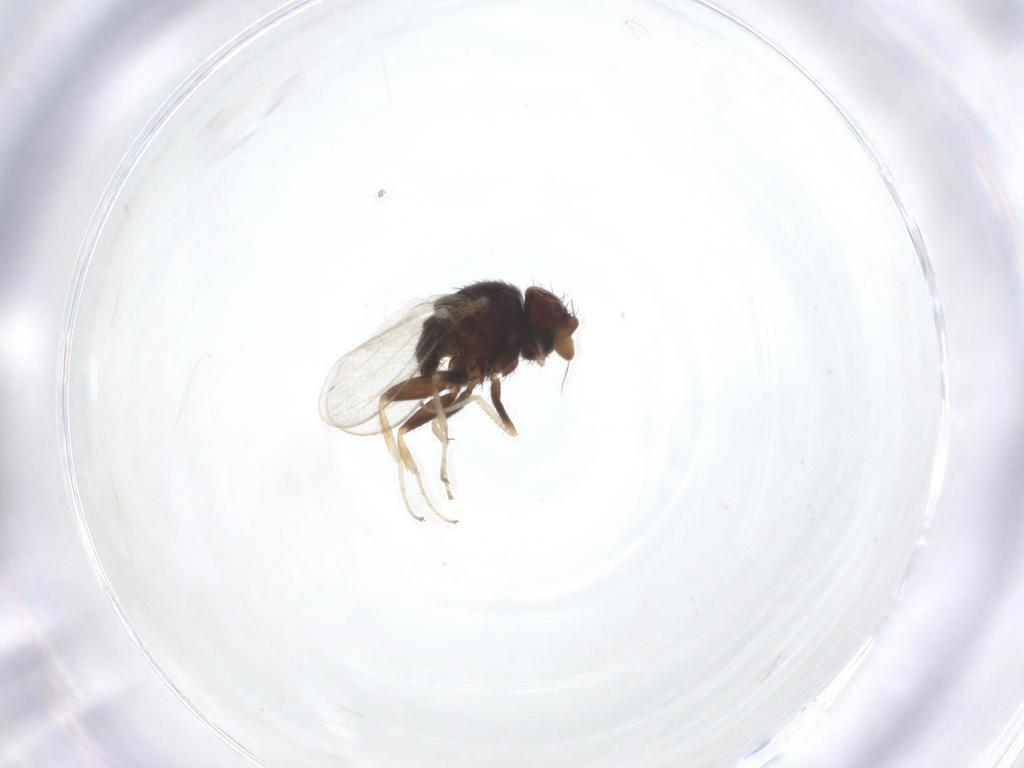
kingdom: Animalia
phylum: Arthropoda
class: Insecta
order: Diptera
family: Chironomidae
